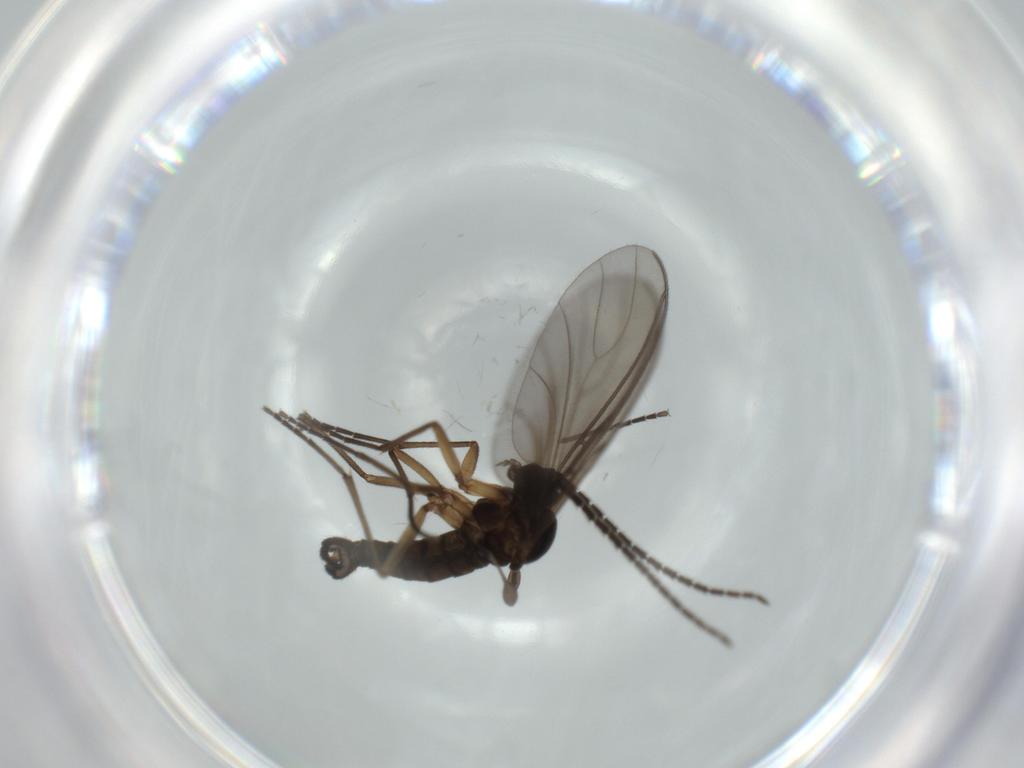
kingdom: Animalia
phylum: Arthropoda
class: Insecta
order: Diptera
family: Sciaridae
